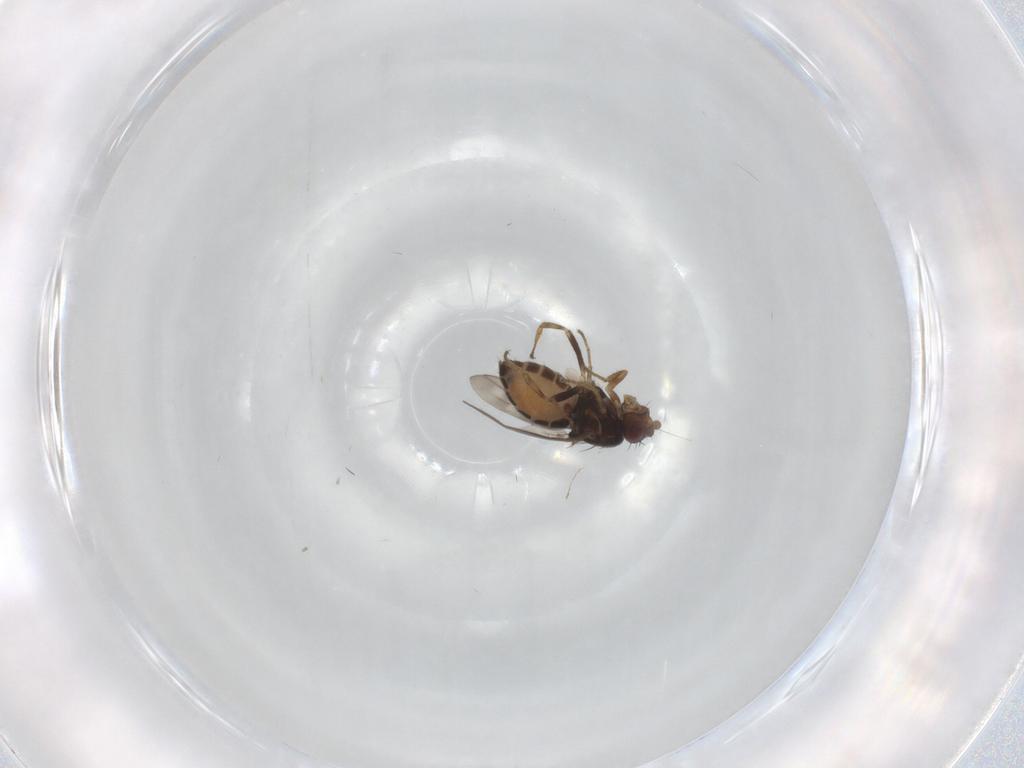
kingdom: Animalia
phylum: Arthropoda
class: Insecta
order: Diptera
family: Sphaeroceridae
